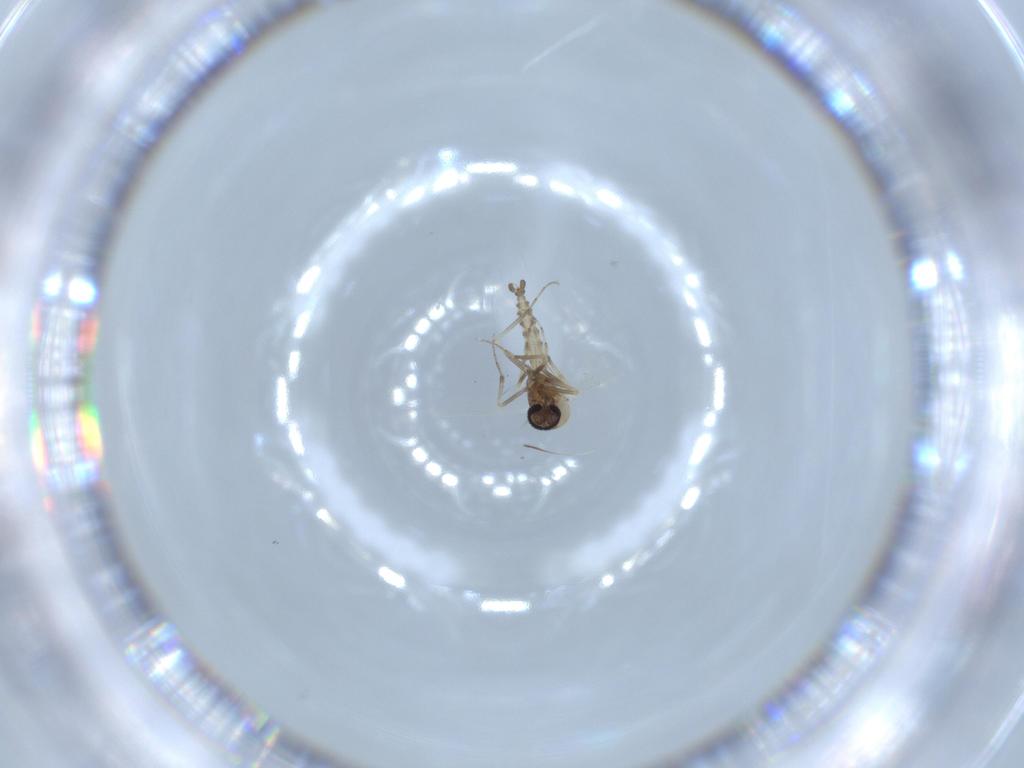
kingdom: Animalia
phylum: Arthropoda
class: Insecta
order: Diptera
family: Ceratopogonidae
